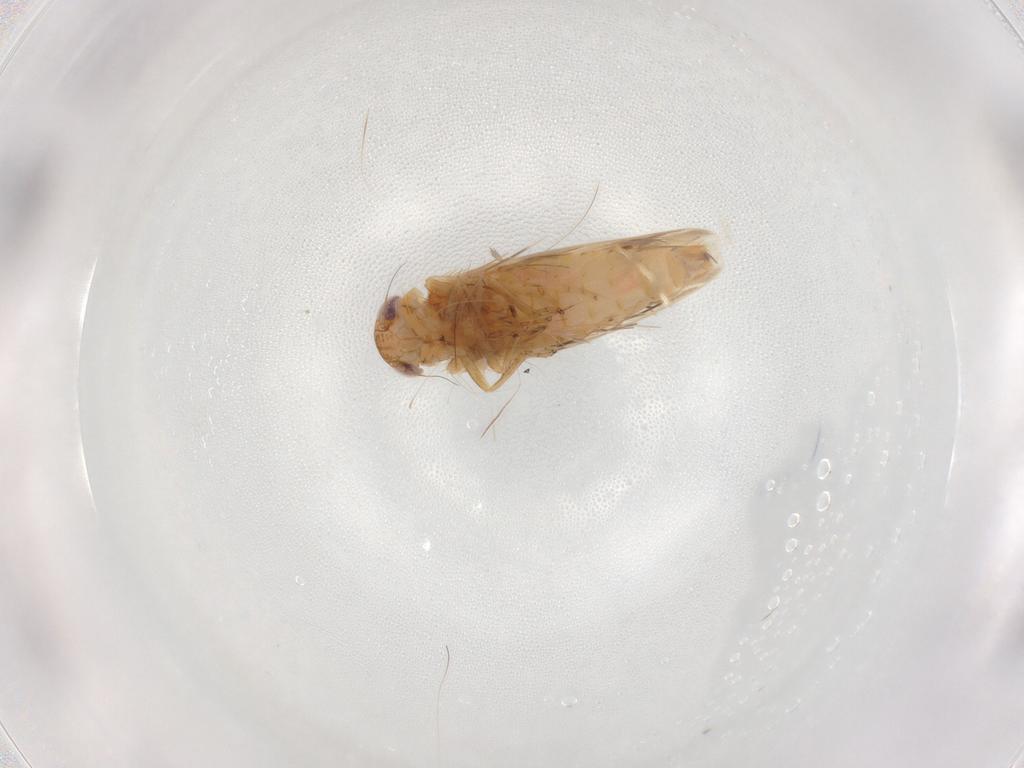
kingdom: Animalia
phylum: Arthropoda
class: Insecta
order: Hemiptera
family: Cicadellidae
